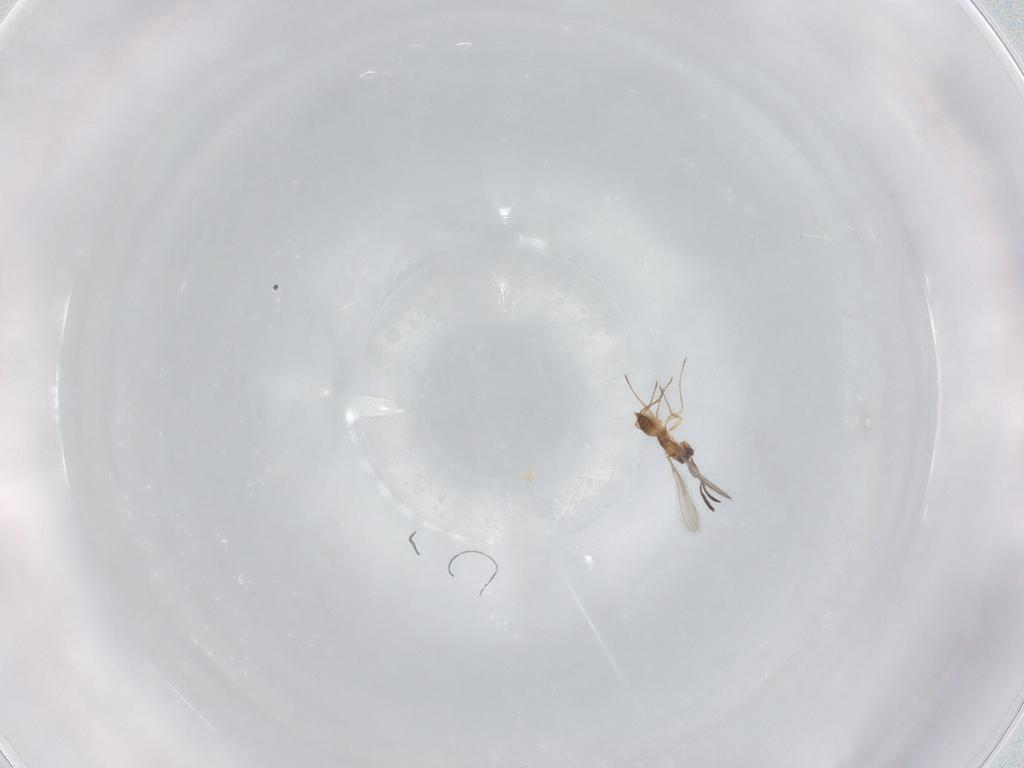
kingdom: Animalia
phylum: Arthropoda
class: Insecta
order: Hymenoptera
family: Mymaridae
